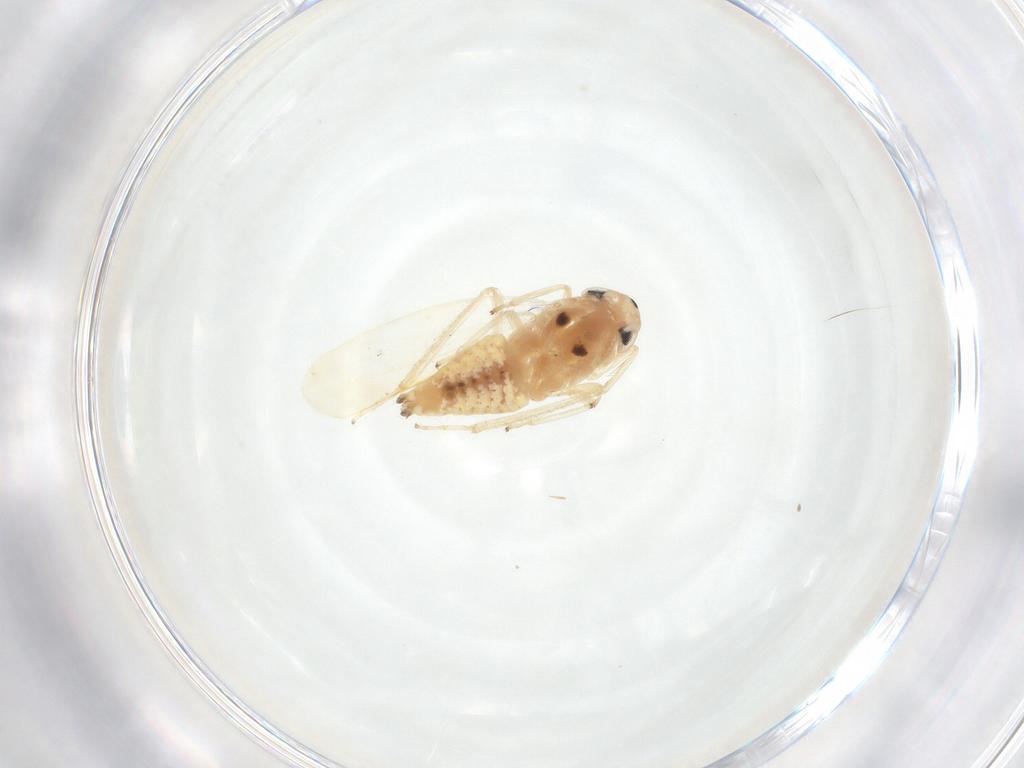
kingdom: Animalia
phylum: Arthropoda
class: Insecta
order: Hemiptera
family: Cicadellidae
